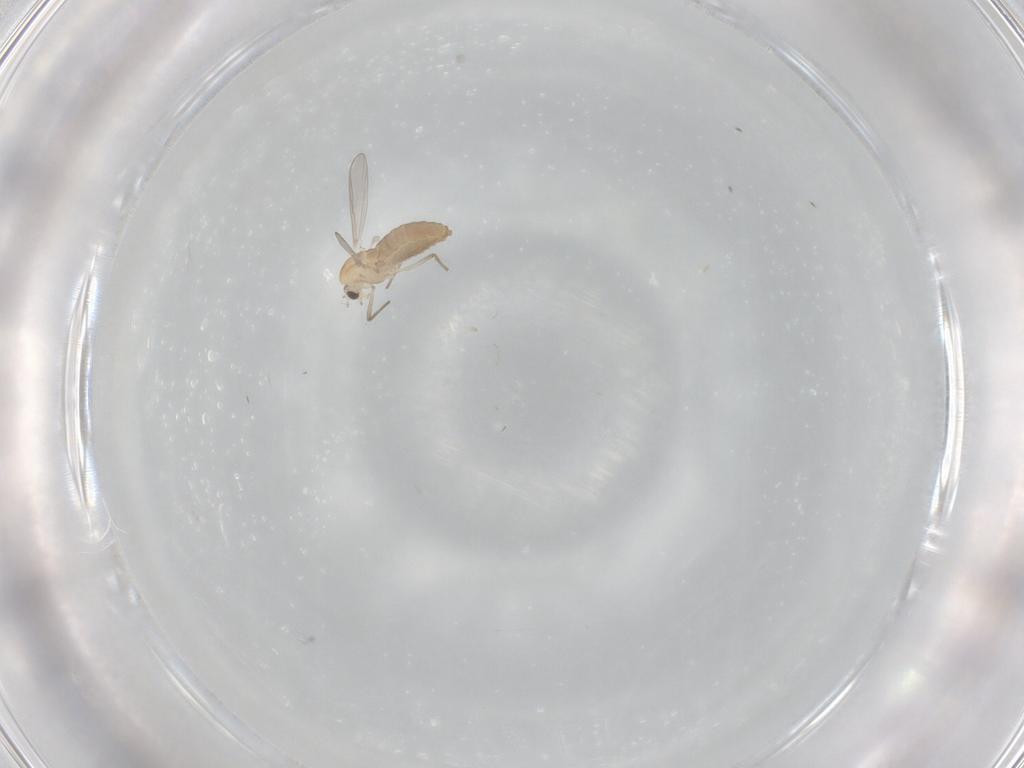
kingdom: Animalia
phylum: Arthropoda
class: Insecta
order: Diptera
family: Chironomidae
